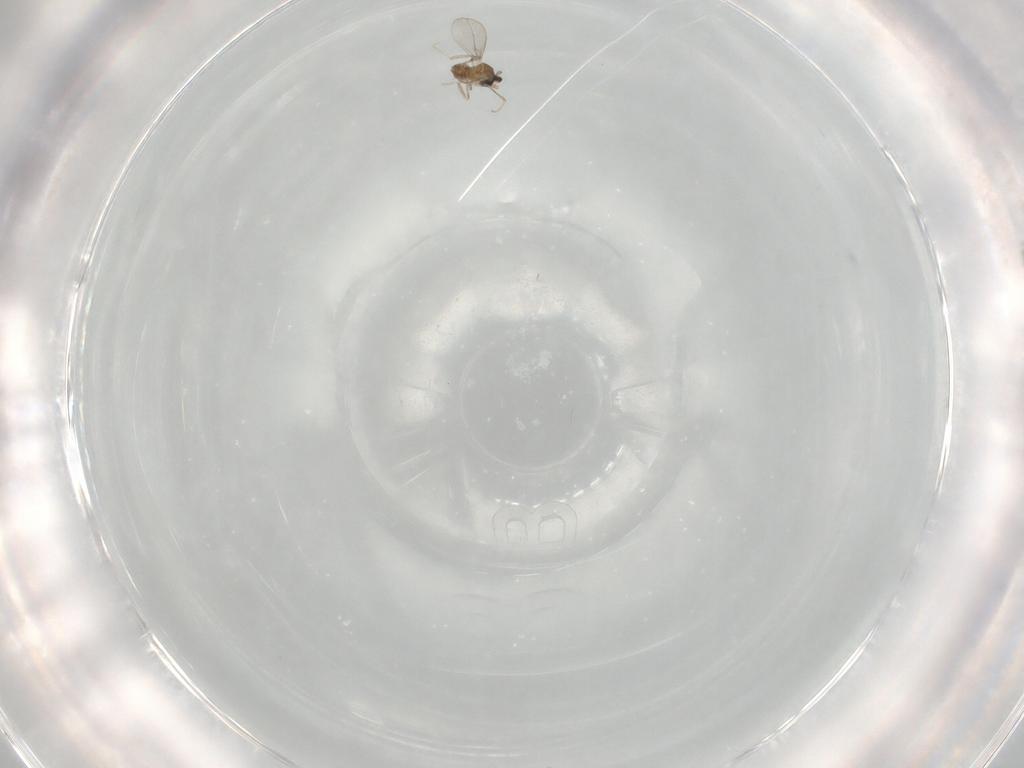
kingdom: Animalia
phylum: Arthropoda
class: Insecta
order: Diptera
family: Cecidomyiidae
